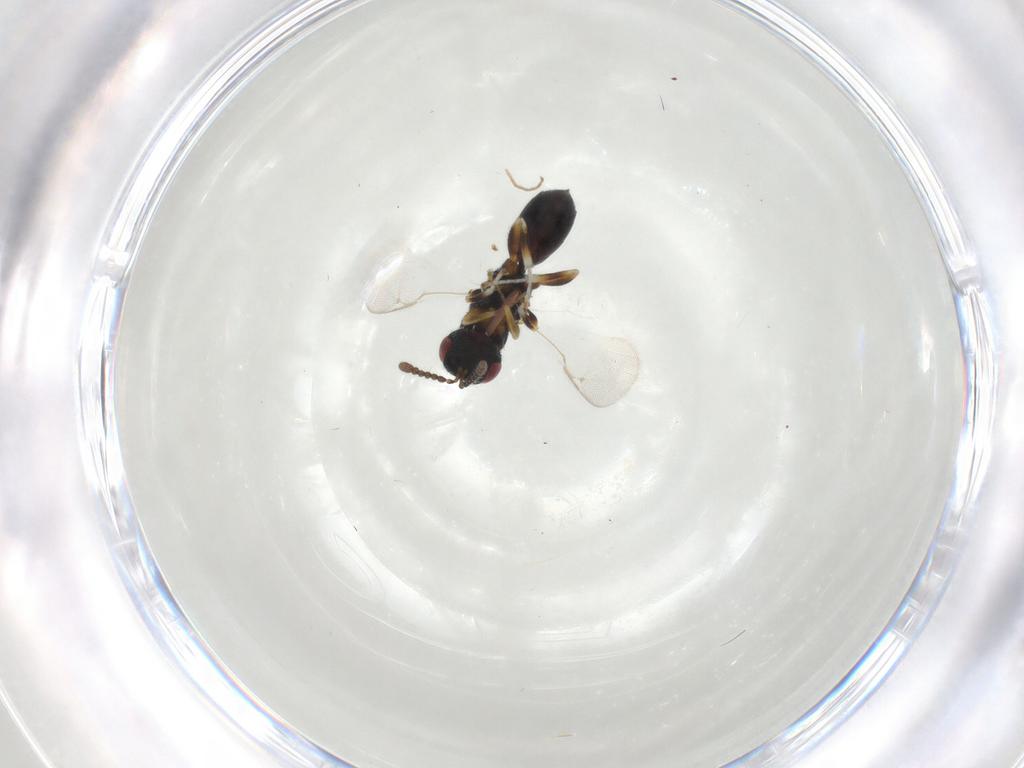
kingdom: Animalia
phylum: Arthropoda
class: Insecta
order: Hymenoptera
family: Eurytomidae
